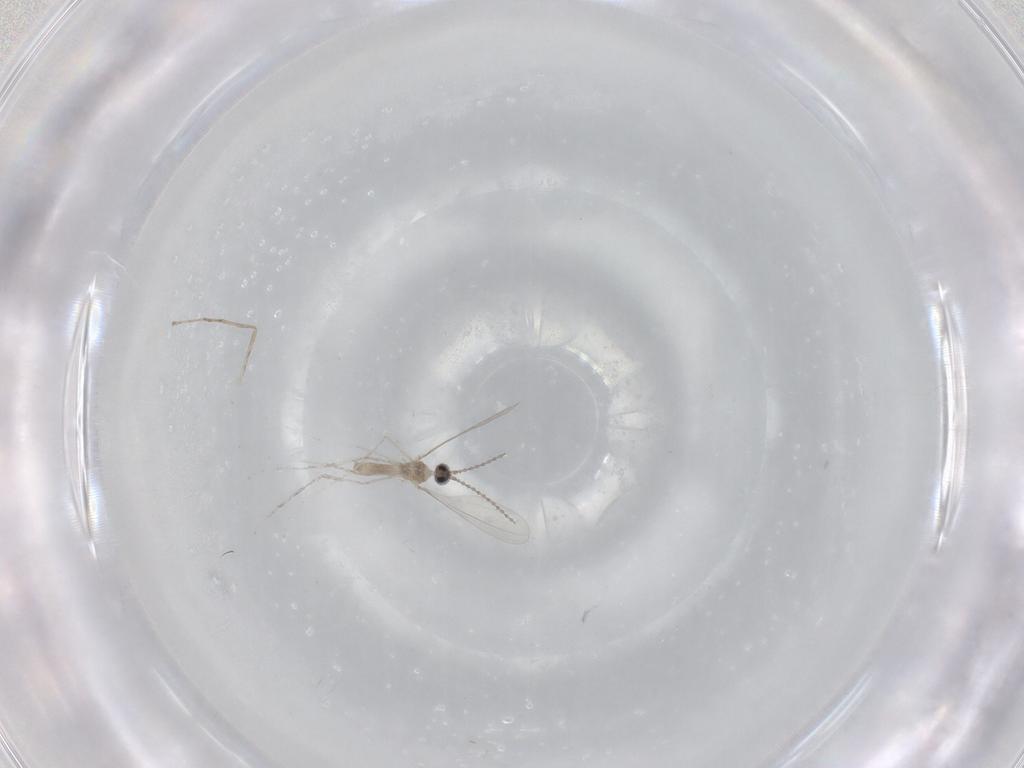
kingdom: Animalia
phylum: Arthropoda
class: Insecta
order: Diptera
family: Cecidomyiidae
